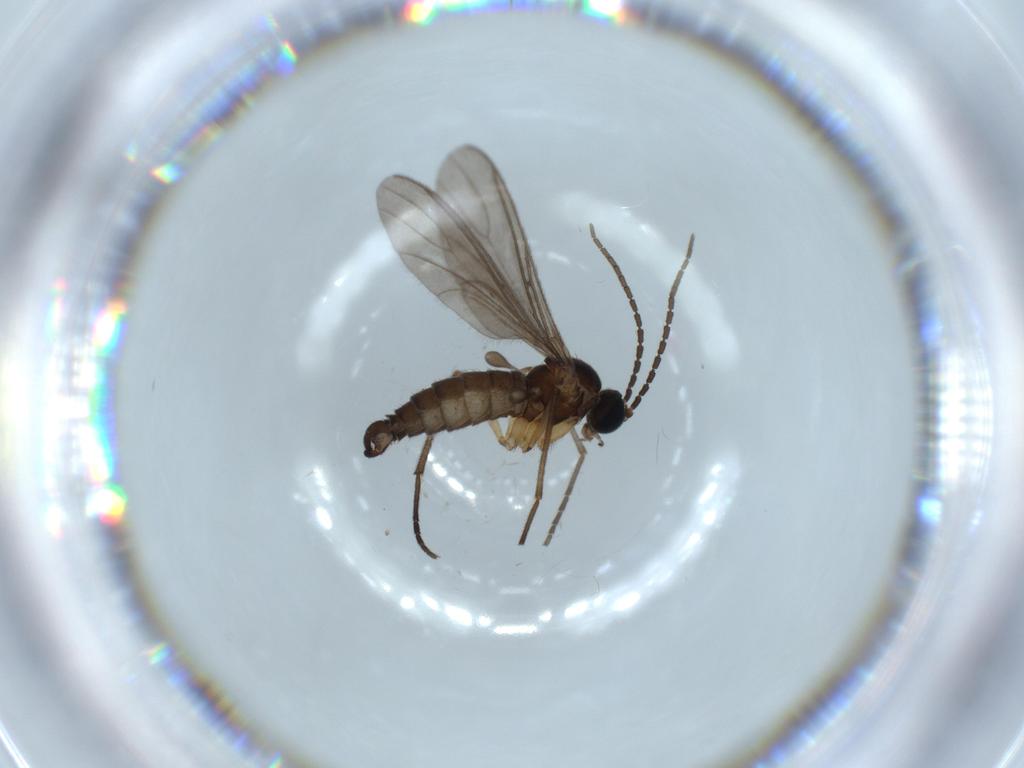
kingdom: Animalia
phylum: Arthropoda
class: Insecta
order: Diptera
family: Sciaridae
